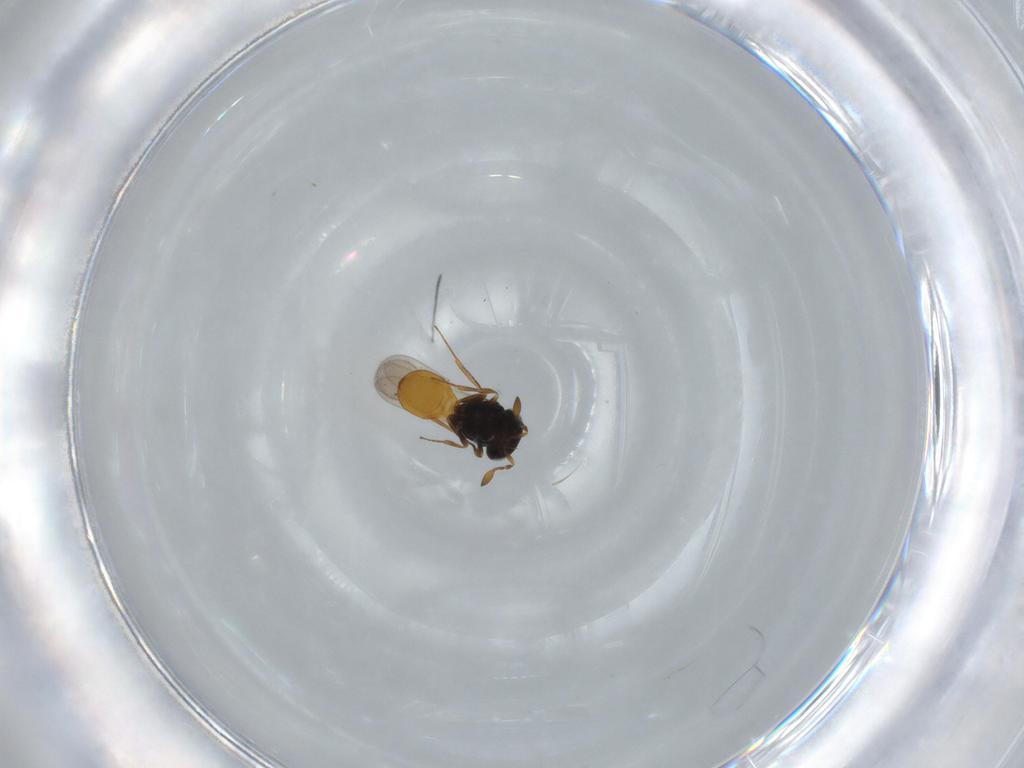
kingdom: Animalia
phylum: Arthropoda
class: Insecta
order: Hymenoptera
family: Scelionidae
